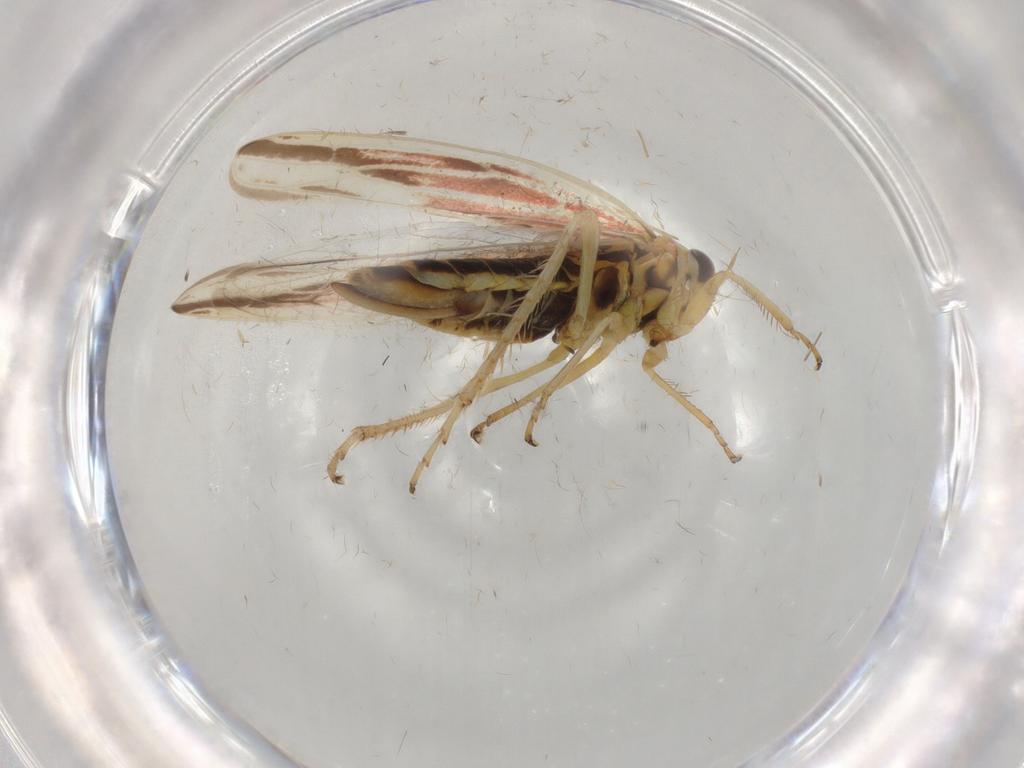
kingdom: Animalia
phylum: Arthropoda
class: Insecta
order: Hemiptera
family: Cicadellidae
